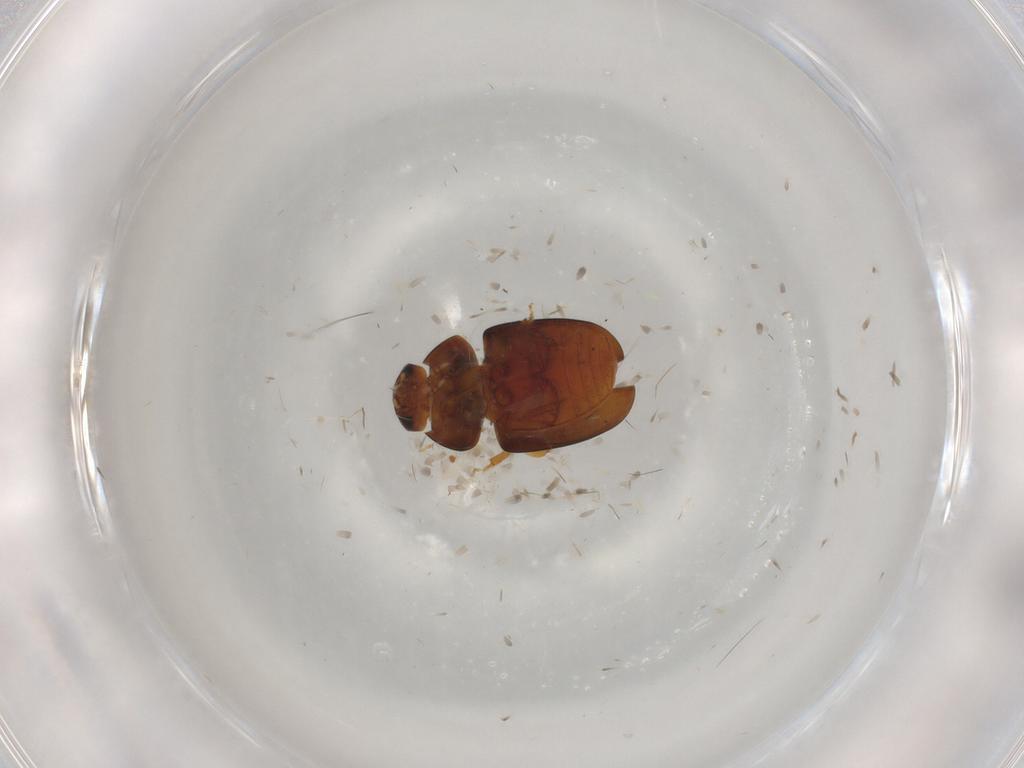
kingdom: Animalia
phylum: Arthropoda
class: Insecta
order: Coleoptera
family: Phalacridae
